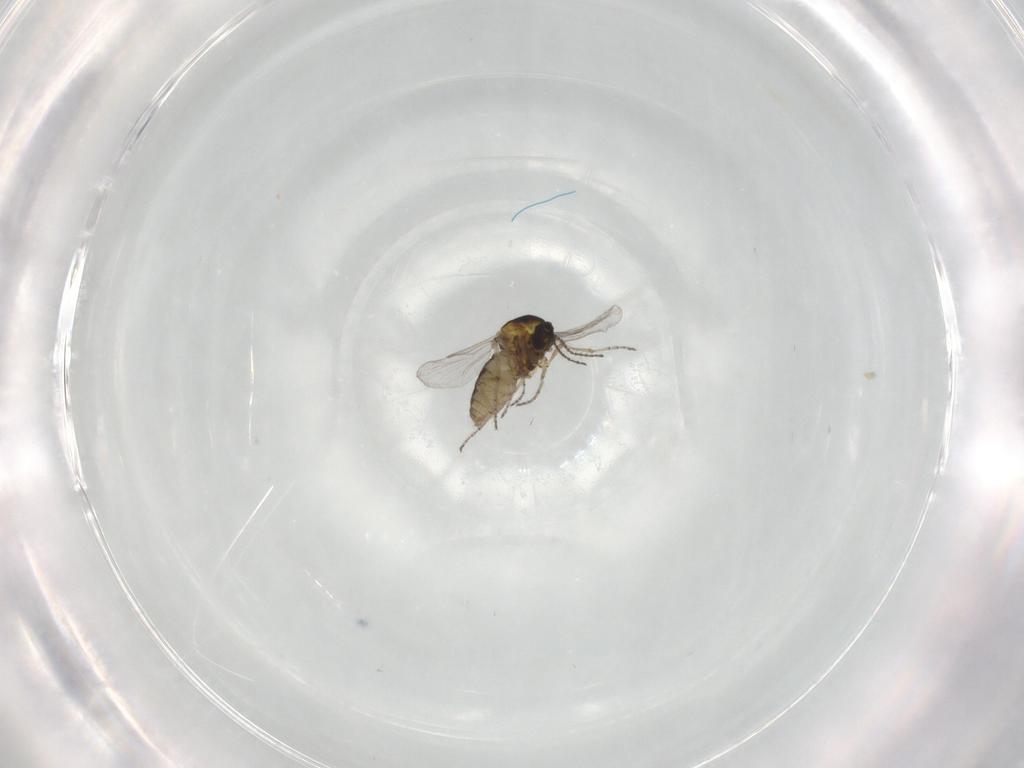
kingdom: Animalia
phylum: Arthropoda
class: Insecta
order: Diptera
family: Ceratopogonidae
